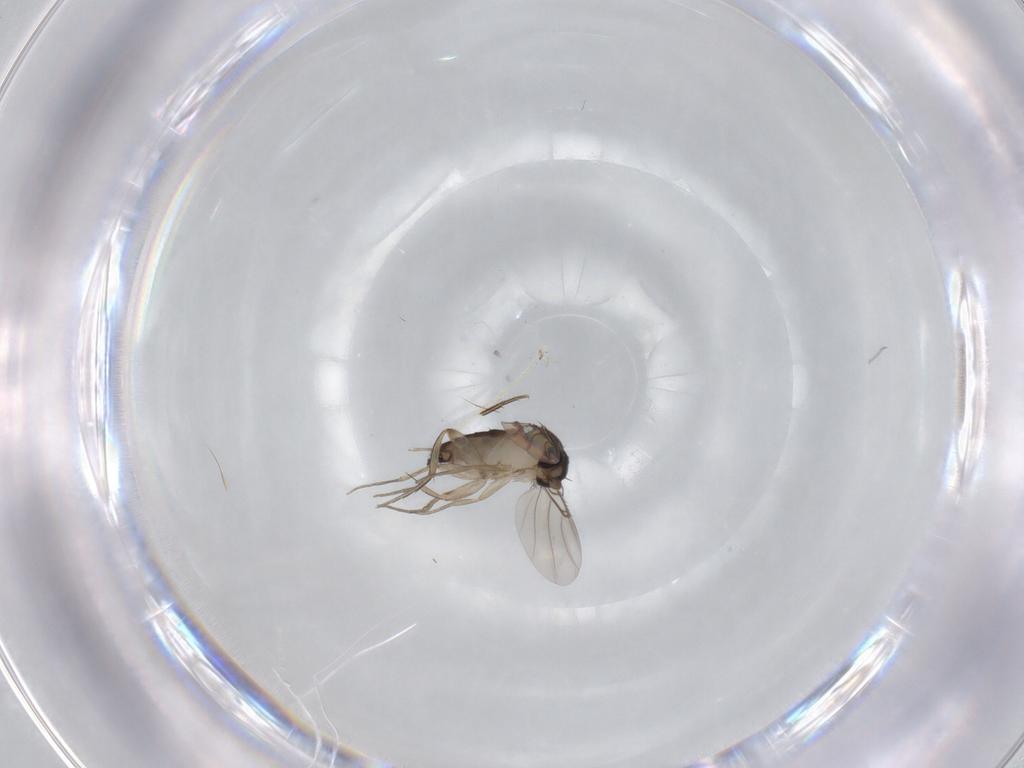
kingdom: Animalia
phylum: Arthropoda
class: Insecta
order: Diptera
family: Phoridae
